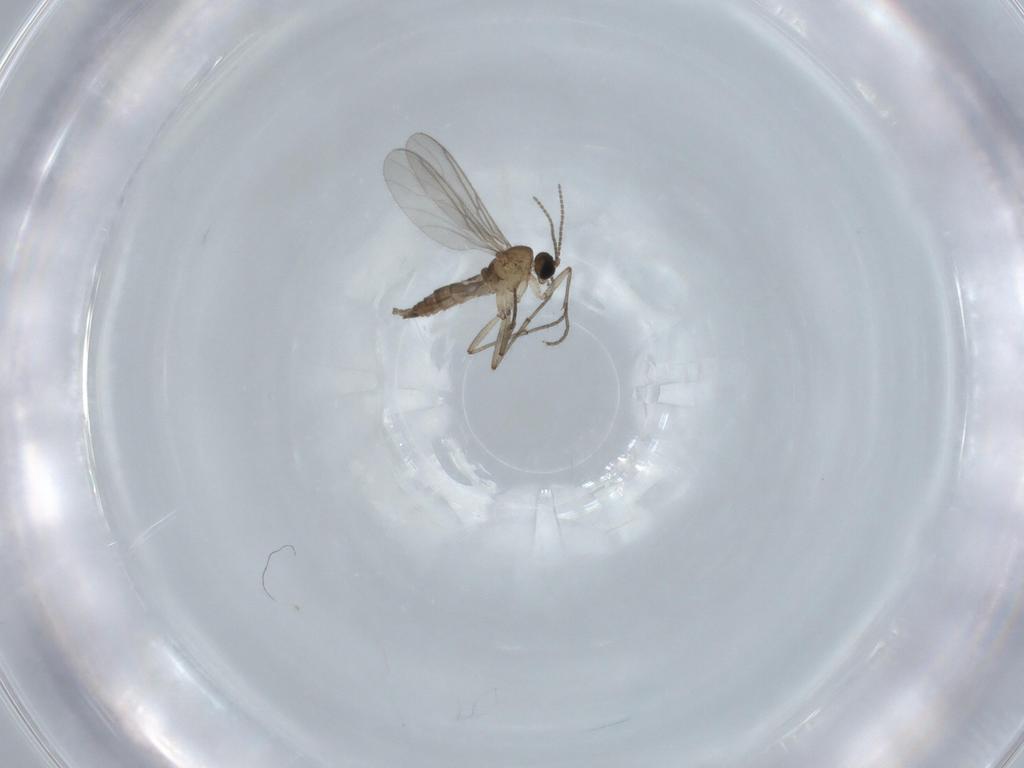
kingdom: Animalia
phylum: Arthropoda
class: Insecta
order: Diptera
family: Sciaridae
